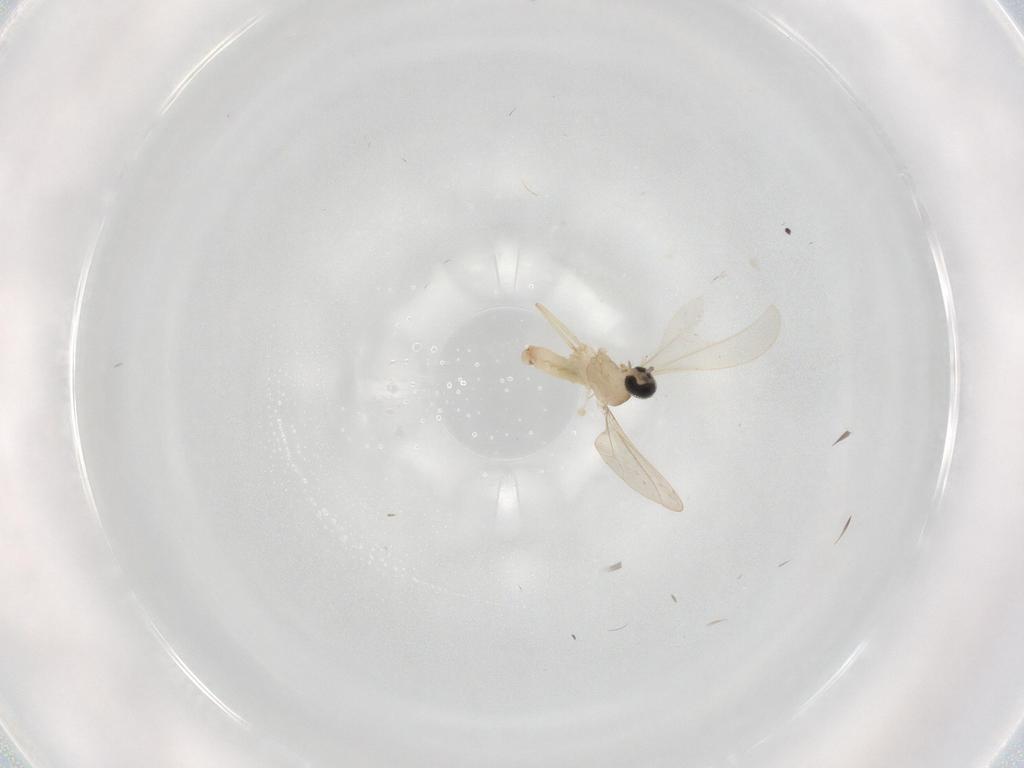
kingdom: Animalia
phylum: Arthropoda
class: Insecta
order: Diptera
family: Cecidomyiidae
